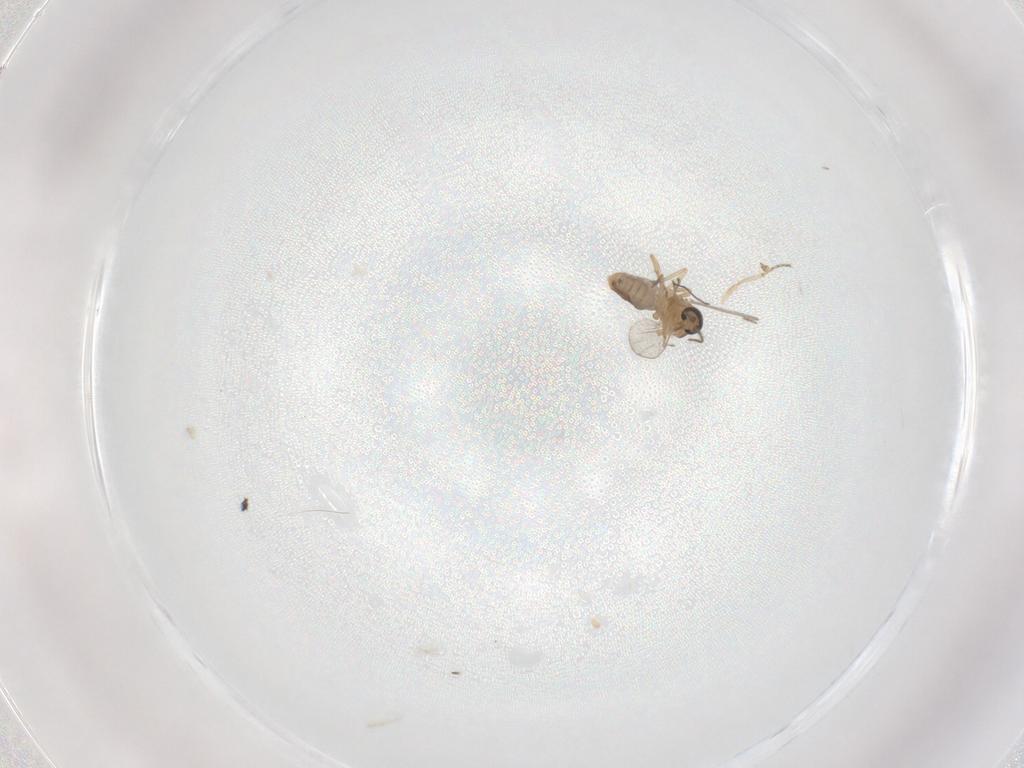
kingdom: Animalia
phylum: Arthropoda
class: Insecta
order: Diptera
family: Ceratopogonidae
